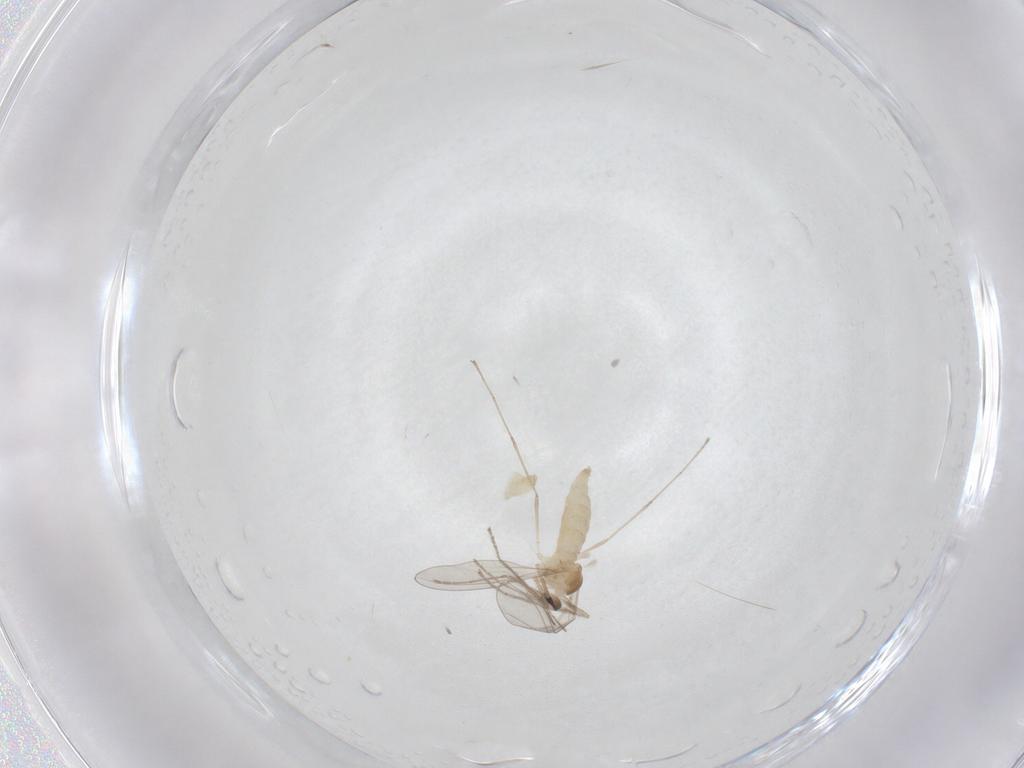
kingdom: Animalia
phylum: Arthropoda
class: Insecta
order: Diptera
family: Cecidomyiidae
